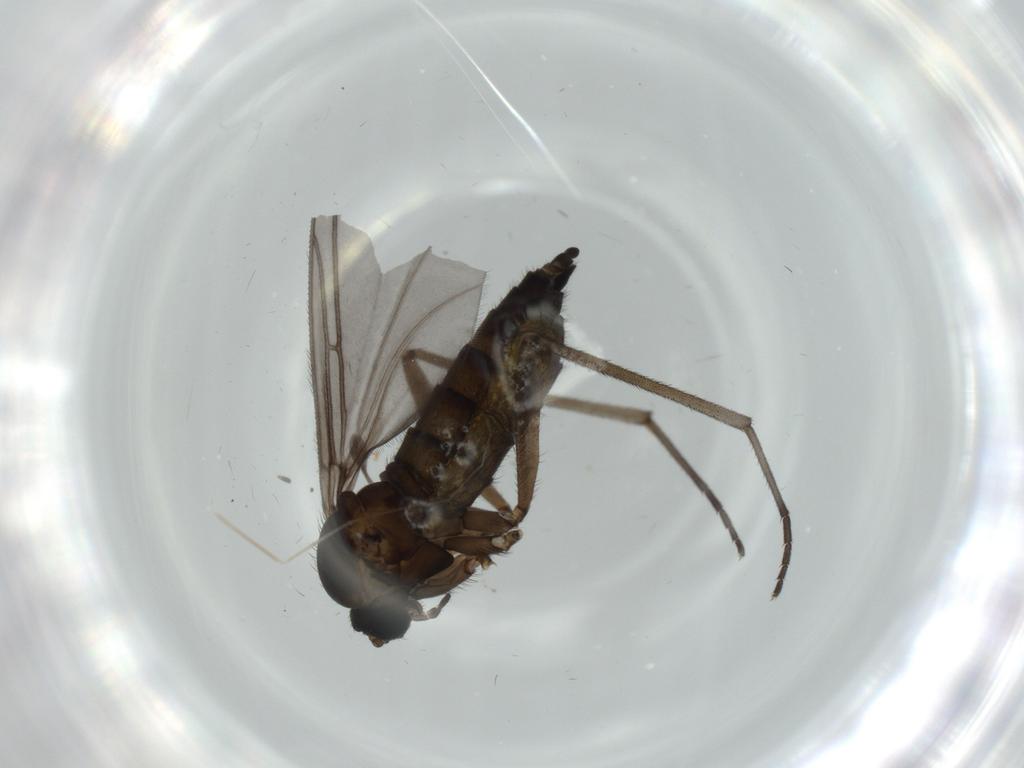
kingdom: Animalia
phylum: Arthropoda
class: Insecta
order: Diptera
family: Sciaridae
